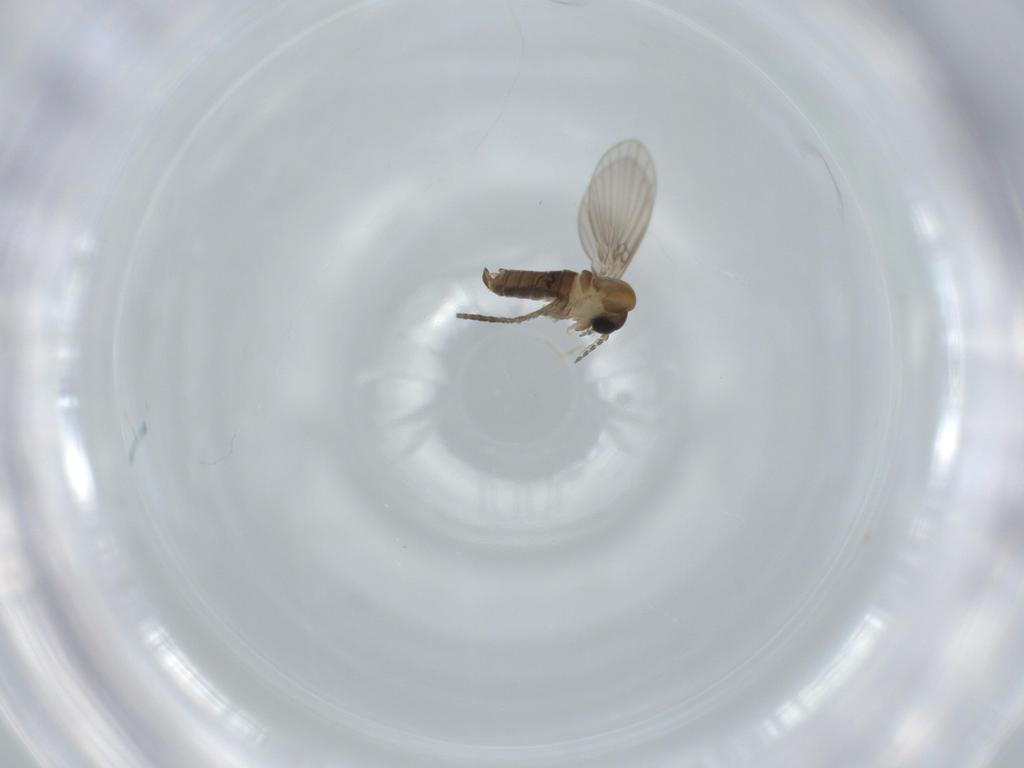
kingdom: Animalia
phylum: Arthropoda
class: Insecta
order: Diptera
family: Psychodidae
